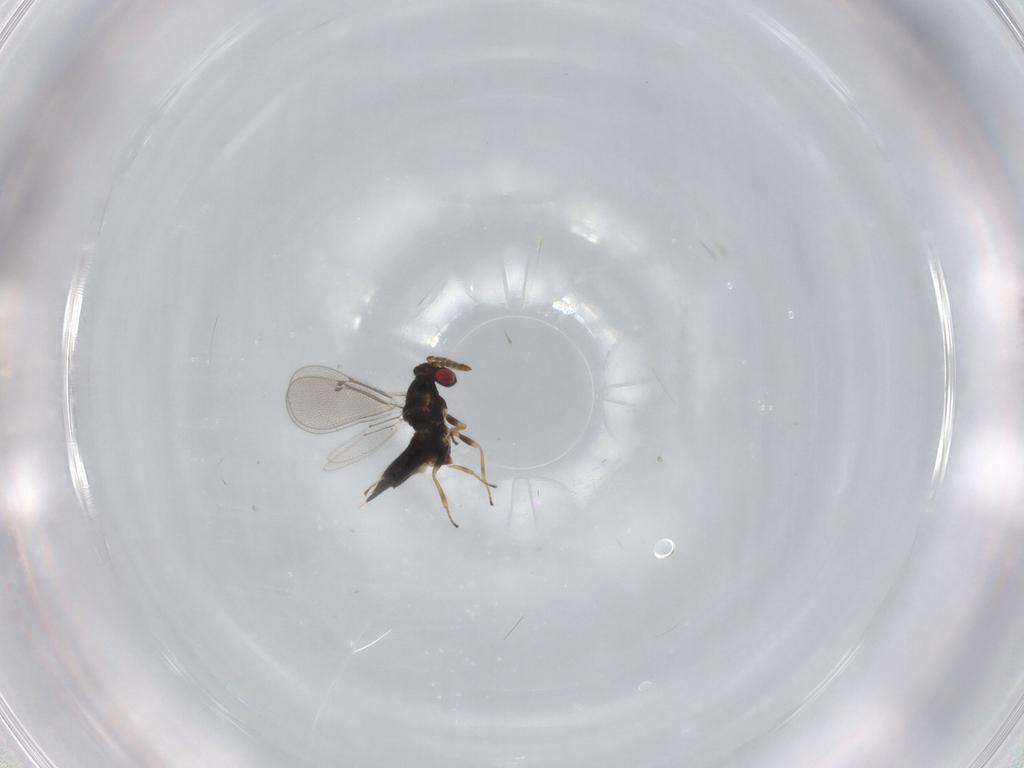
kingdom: Animalia
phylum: Arthropoda
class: Insecta
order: Hymenoptera
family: Eulophidae
